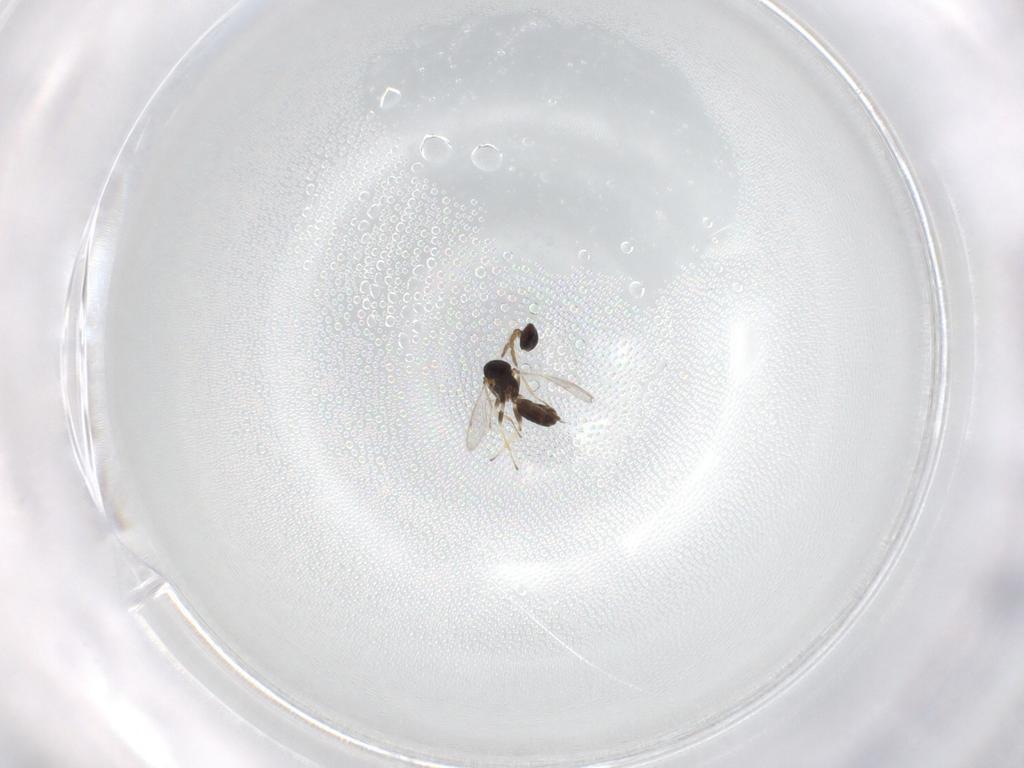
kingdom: Animalia
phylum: Arthropoda
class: Insecta
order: Hymenoptera
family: Eulophidae
